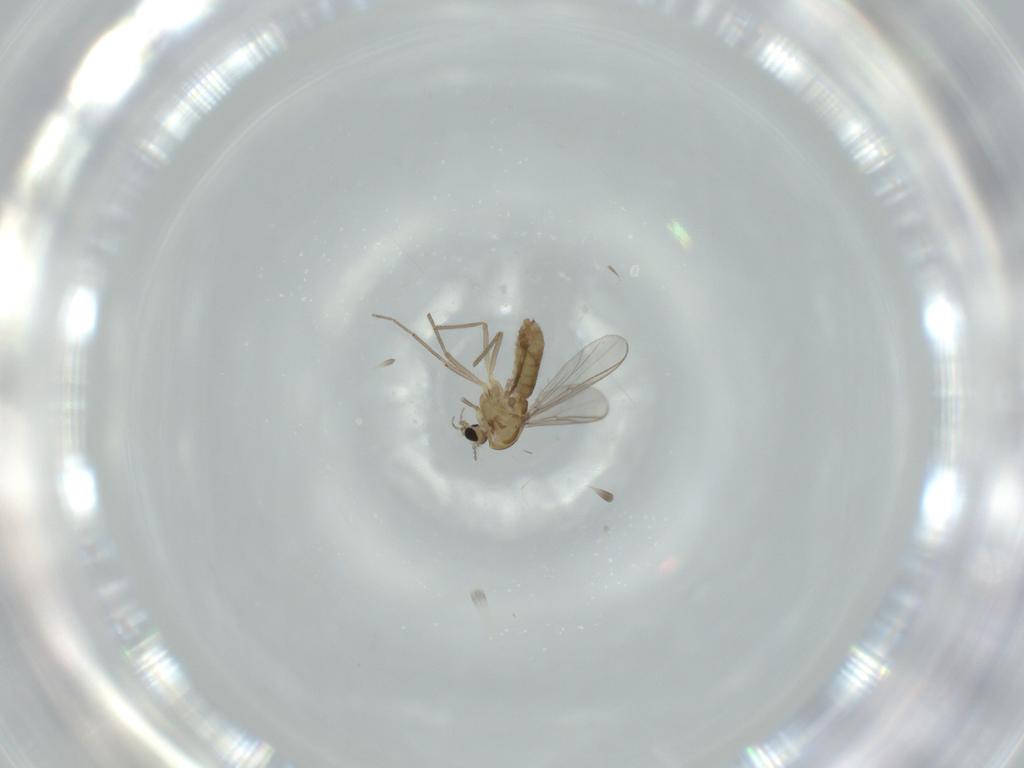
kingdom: Animalia
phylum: Arthropoda
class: Insecta
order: Diptera
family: Chironomidae
